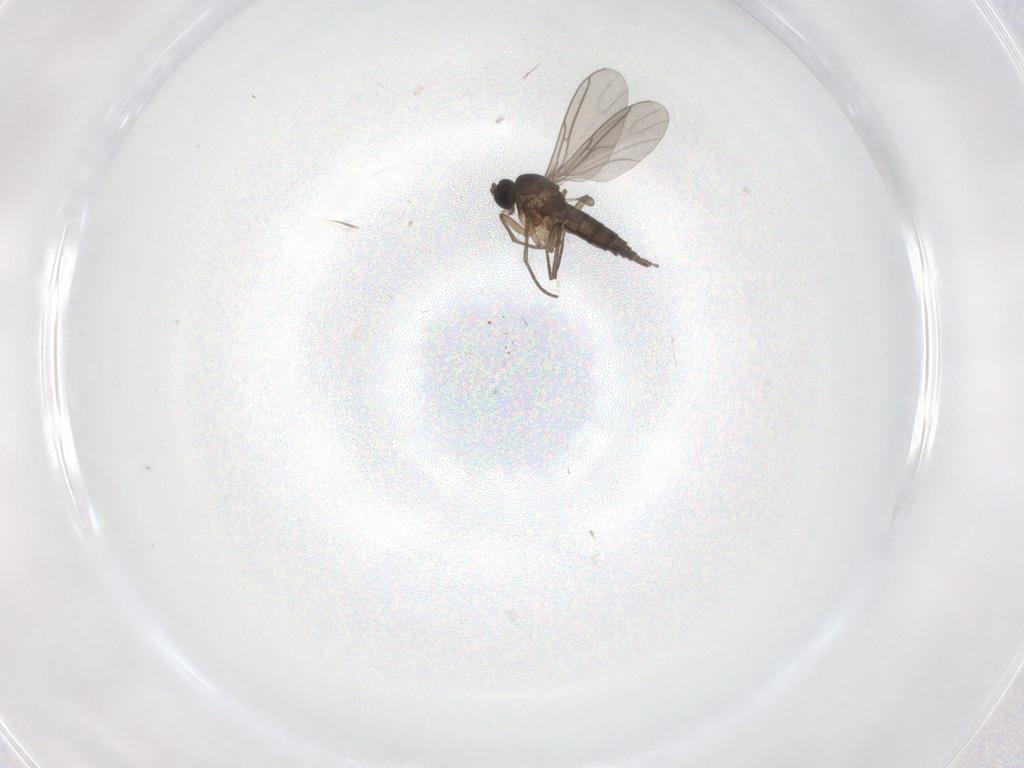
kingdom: Animalia
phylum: Arthropoda
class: Insecta
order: Diptera
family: Sciaridae
